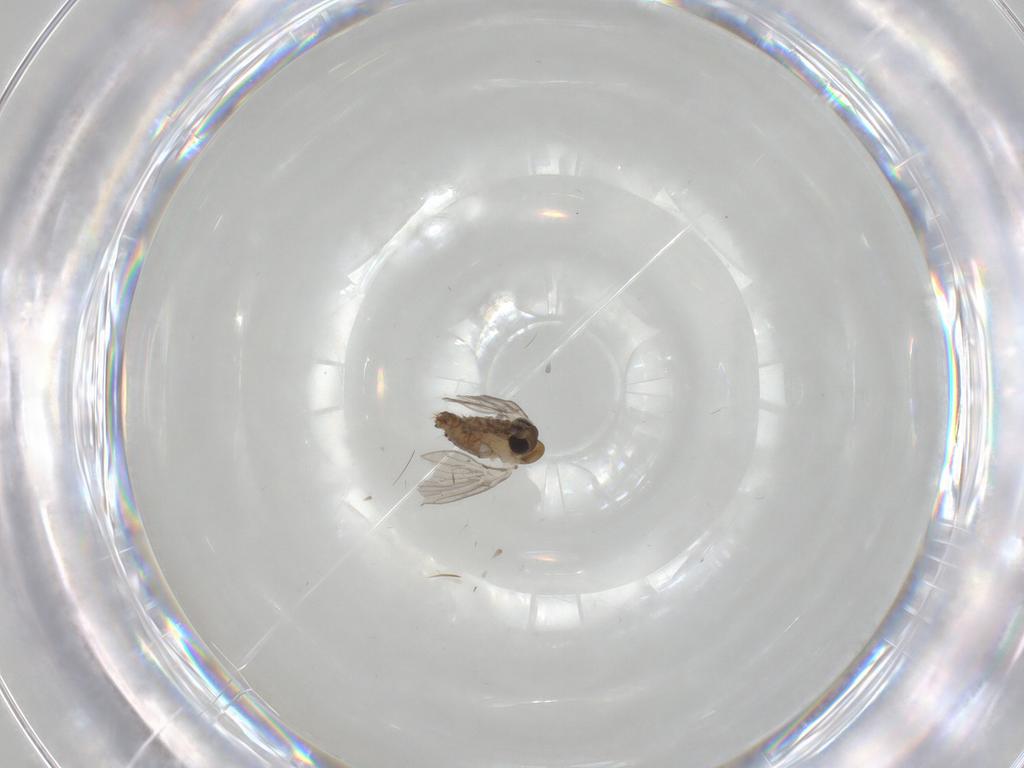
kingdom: Animalia
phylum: Arthropoda
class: Insecta
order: Diptera
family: Psychodidae
